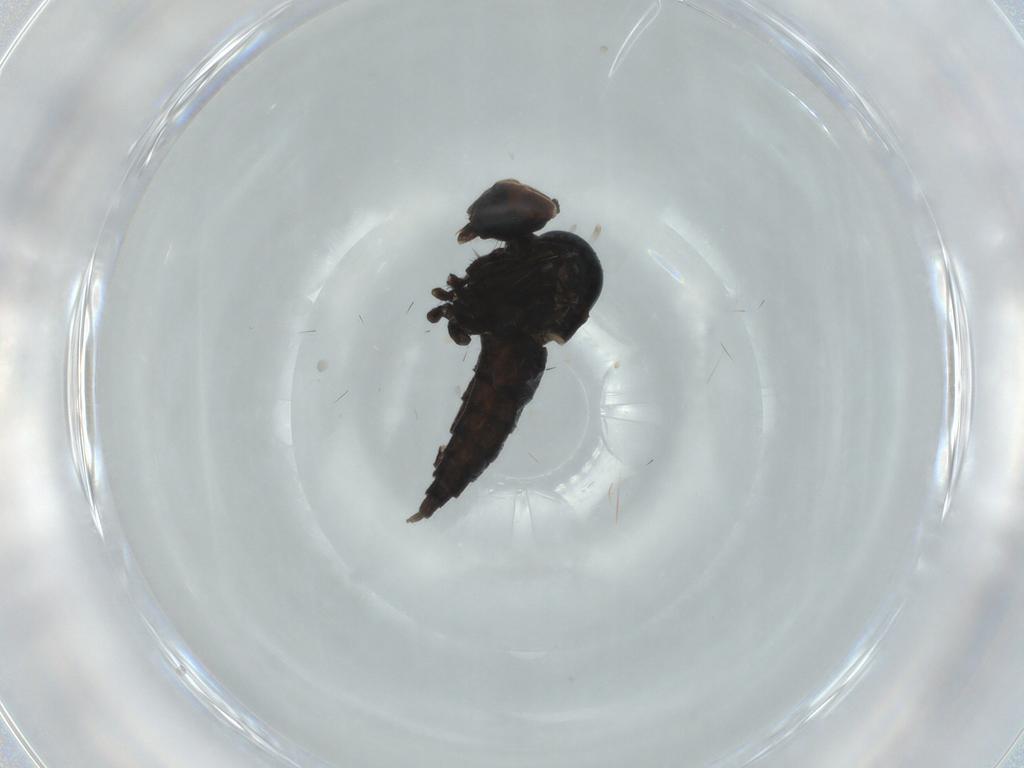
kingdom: Animalia
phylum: Arthropoda
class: Insecta
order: Diptera
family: Hybotidae
